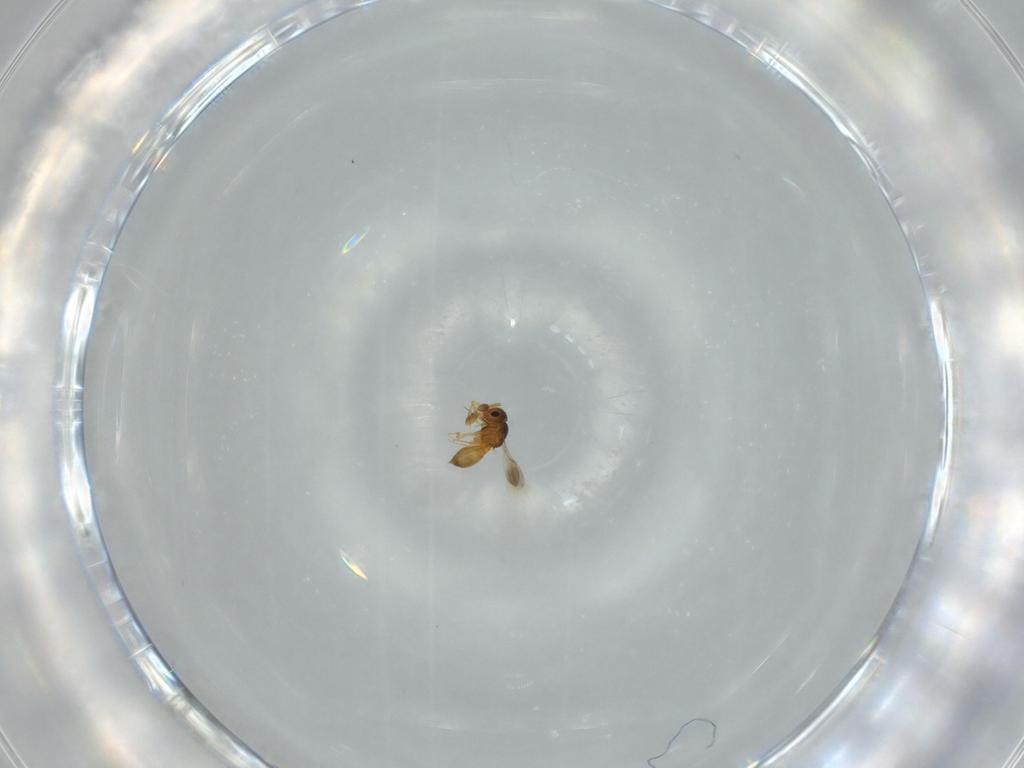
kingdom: Animalia
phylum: Arthropoda
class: Insecta
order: Hymenoptera
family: Scelionidae
